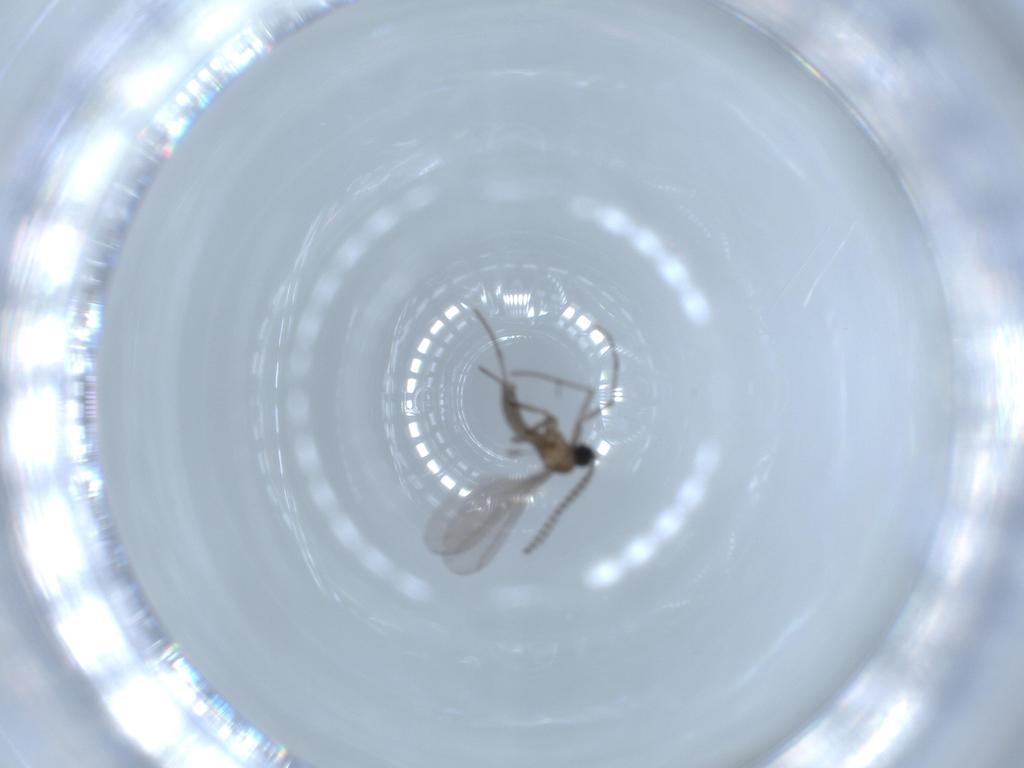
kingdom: Animalia
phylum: Arthropoda
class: Insecta
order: Diptera
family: Sciaridae
